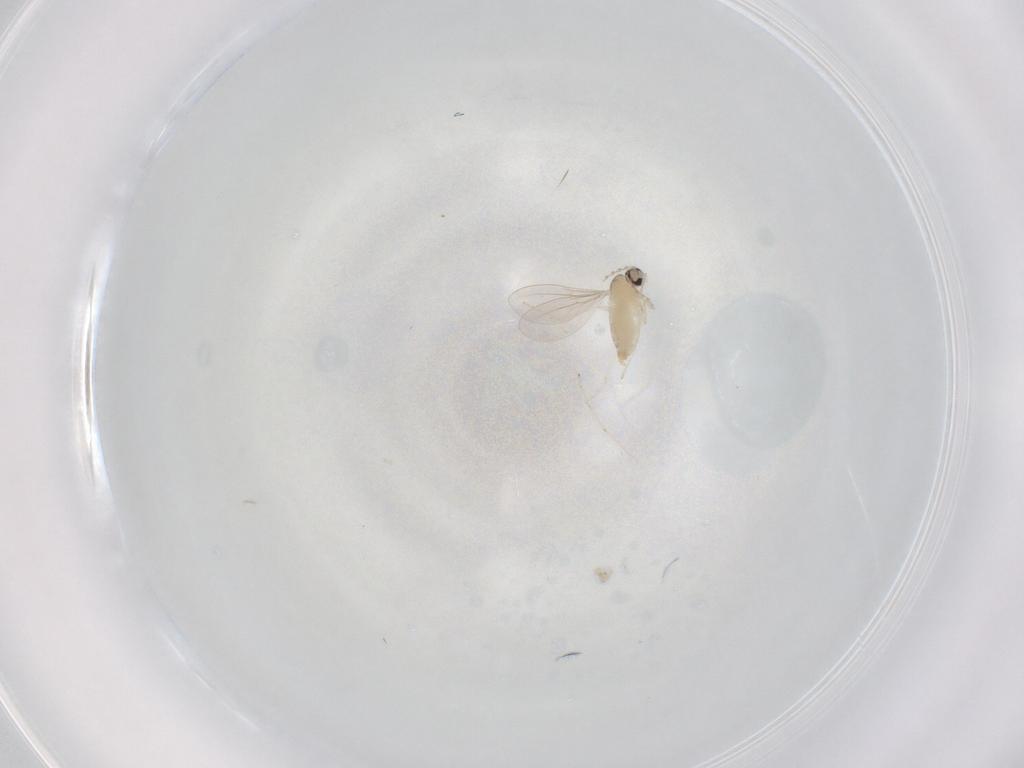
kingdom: Animalia
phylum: Arthropoda
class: Insecta
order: Diptera
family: Cecidomyiidae
